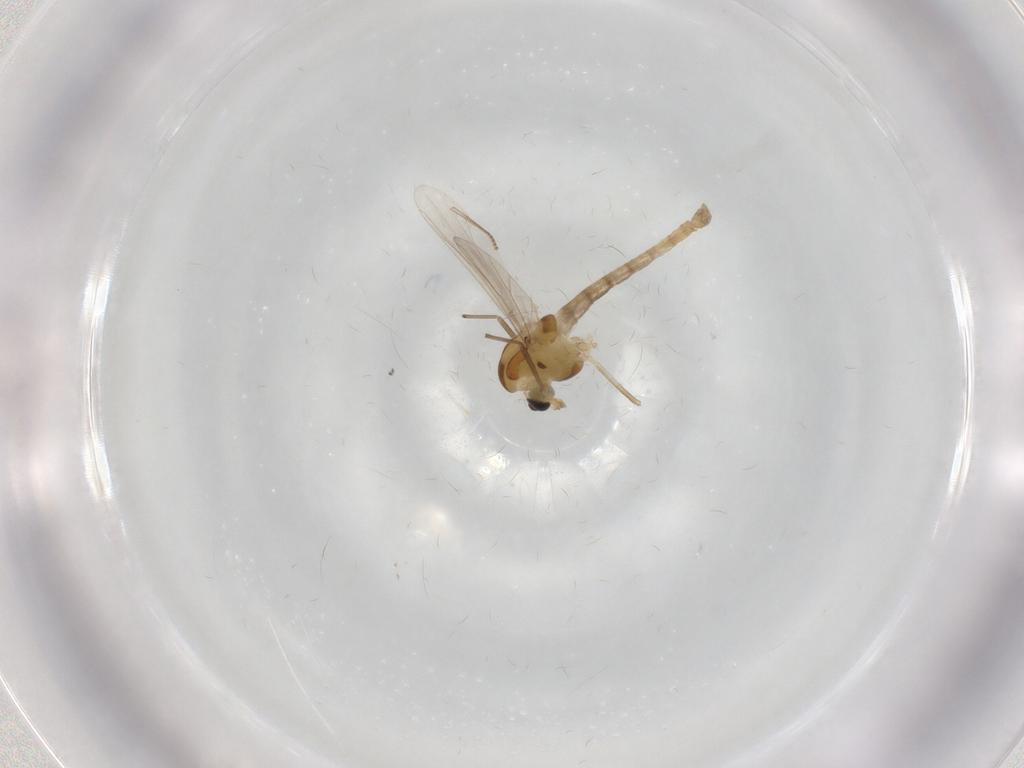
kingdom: Animalia
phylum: Arthropoda
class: Insecta
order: Diptera
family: Chironomidae
